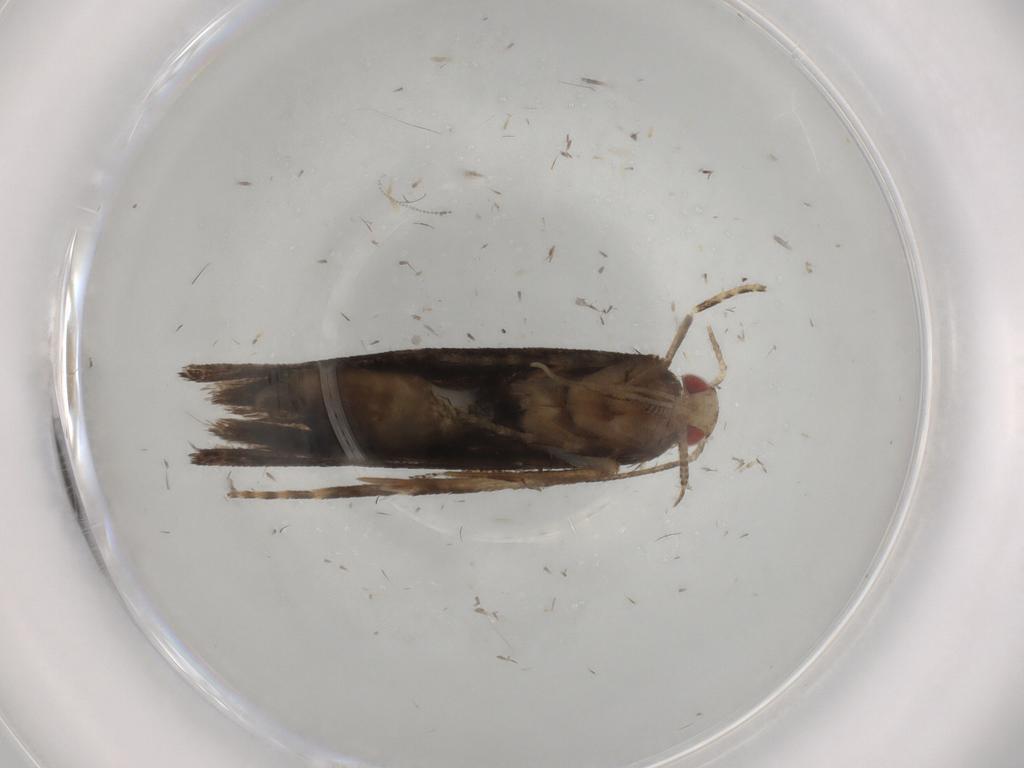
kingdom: Animalia
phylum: Arthropoda
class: Insecta
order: Lepidoptera
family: Gelechiidae
